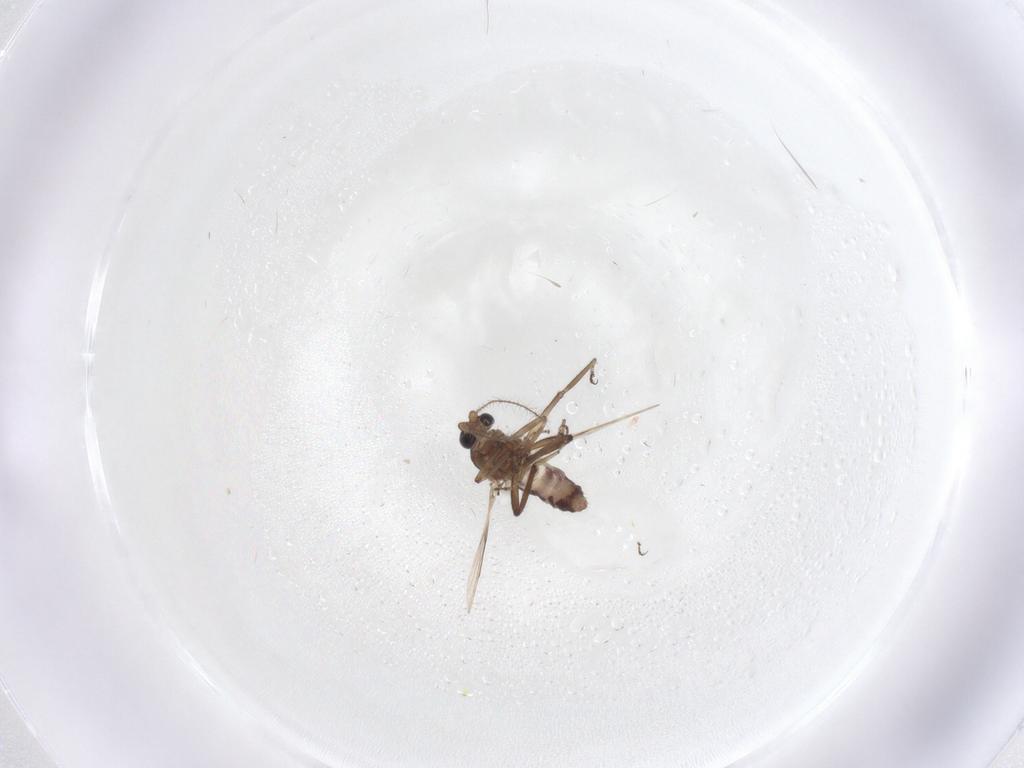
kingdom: Animalia
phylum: Arthropoda
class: Insecta
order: Diptera
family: Ceratopogonidae
